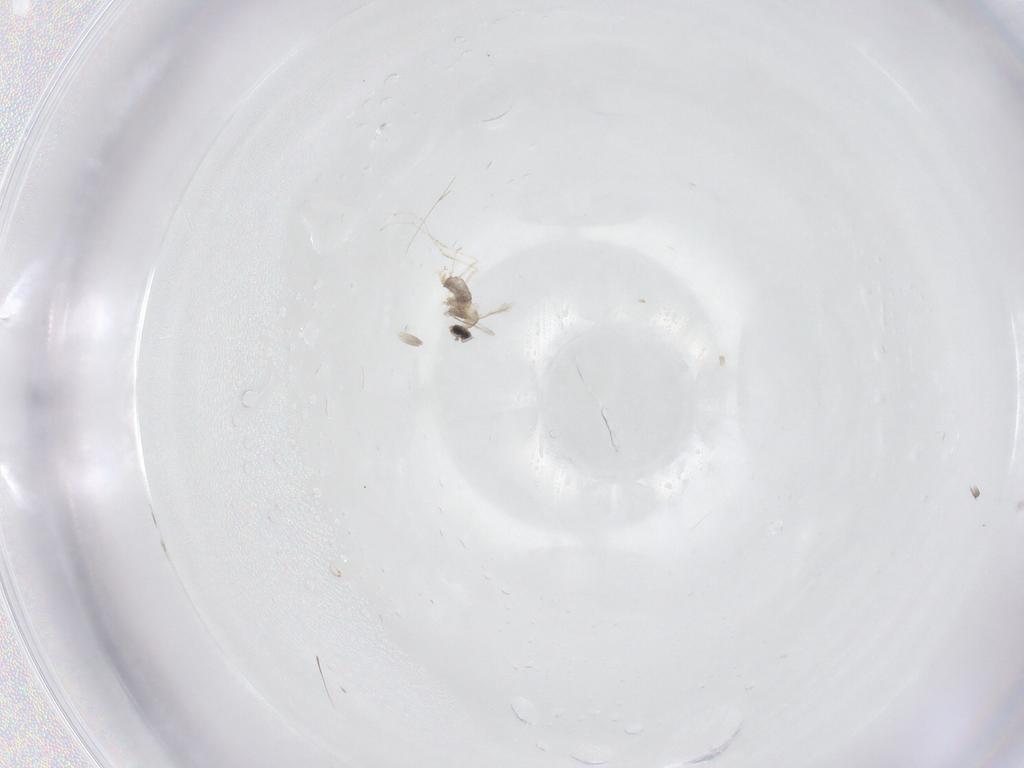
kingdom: Animalia
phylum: Arthropoda
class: Insecta
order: Diptera
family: Cecidomyiidae
